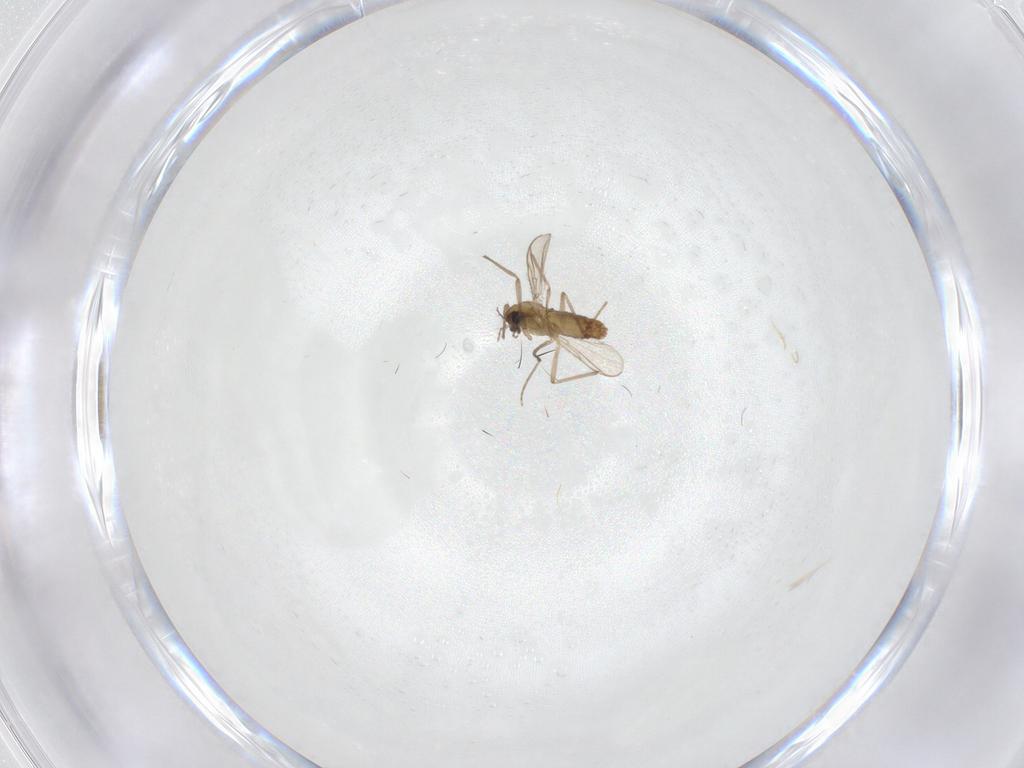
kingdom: Animalia
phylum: Arthropoda
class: Insecta
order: Diptera
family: Chironomidae
